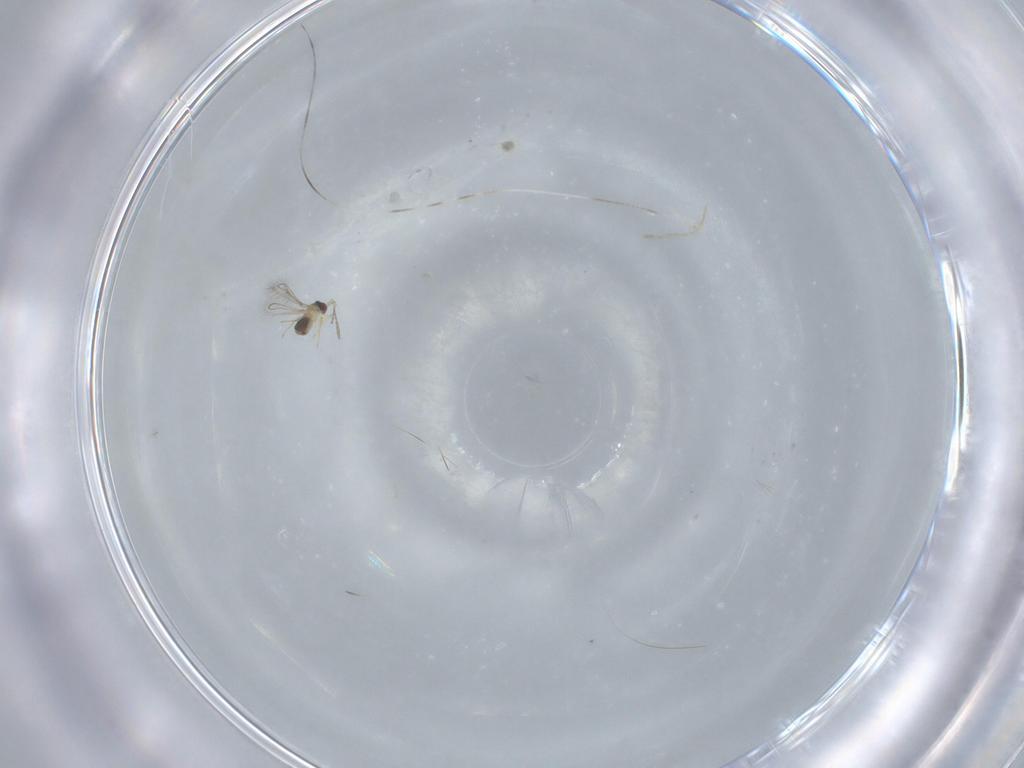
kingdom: Animalia
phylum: Arthropoda
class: Insecta
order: Hymenoptera
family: Mymaridae
